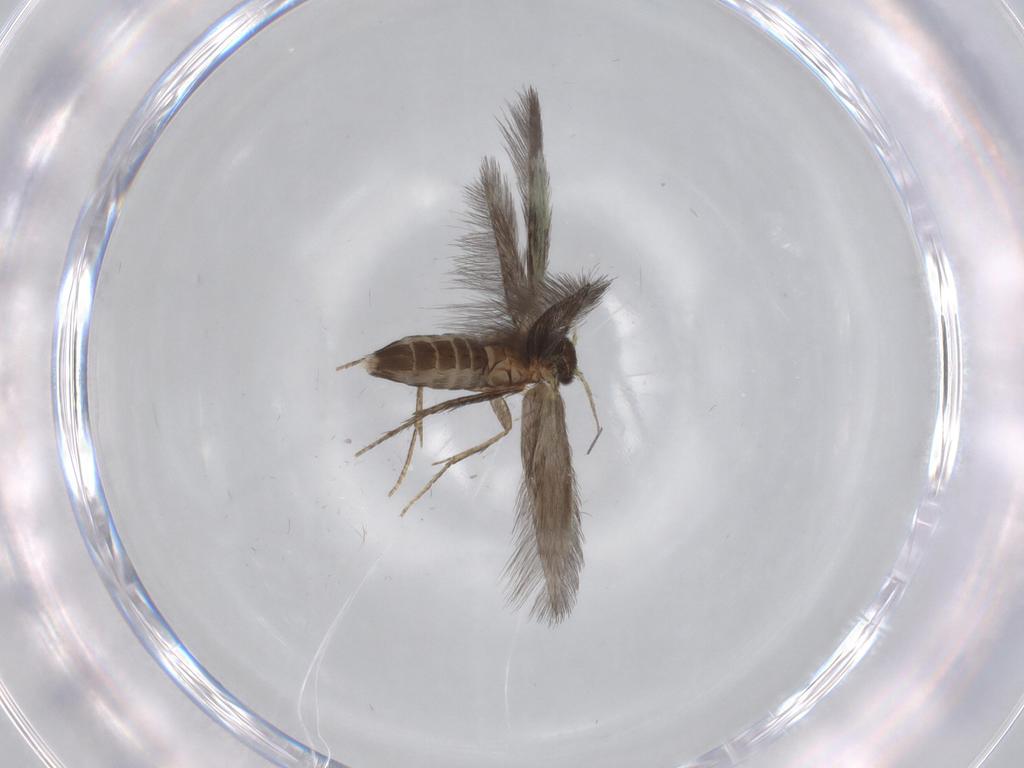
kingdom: Animalia
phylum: Arthropoda
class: Insecta
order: Trichoptera
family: Hydroptilidae
